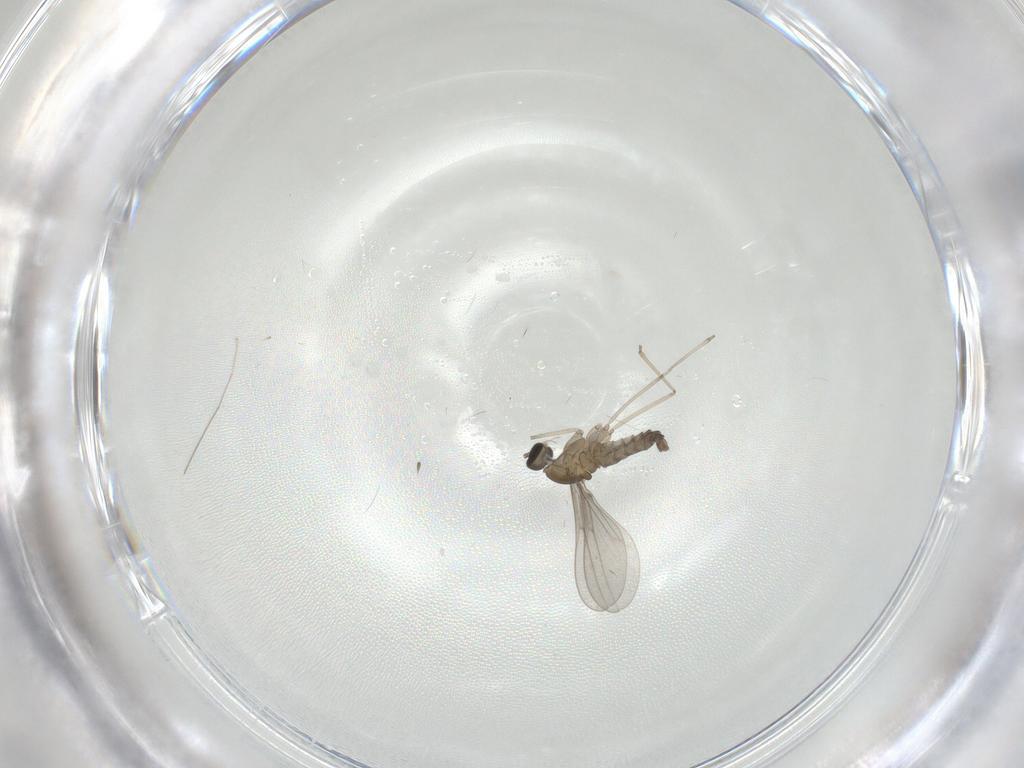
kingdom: Animalia
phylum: Arthropoda
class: Insecta
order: Diptera
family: Cecidomyiidae
